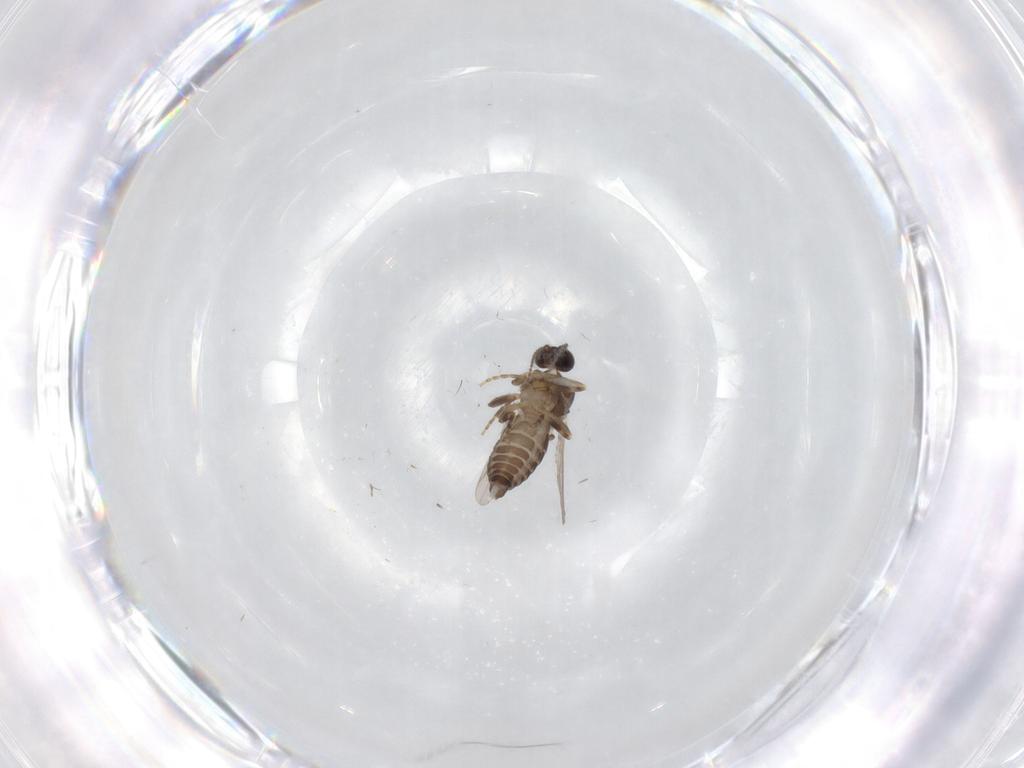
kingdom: Animalia
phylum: Arthropoda
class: Insecta
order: Diptera
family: Ceratopogonidae
